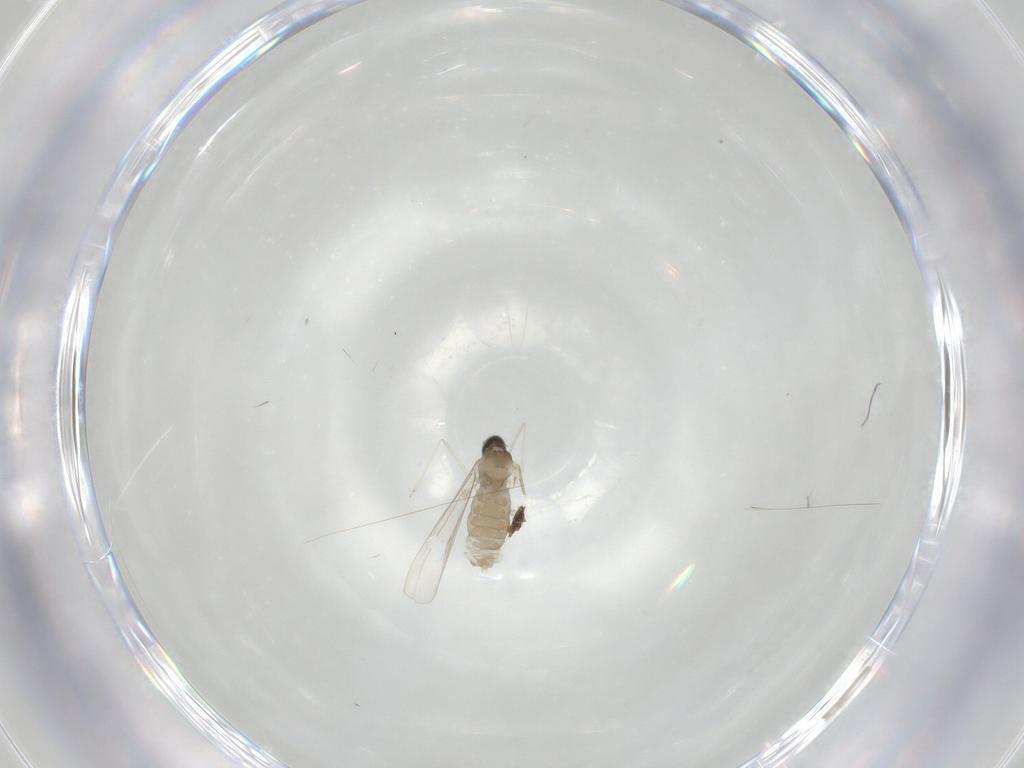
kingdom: Animalia
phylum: Arthropoda
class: Insecta
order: Diptera
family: Cecidomyiidae
